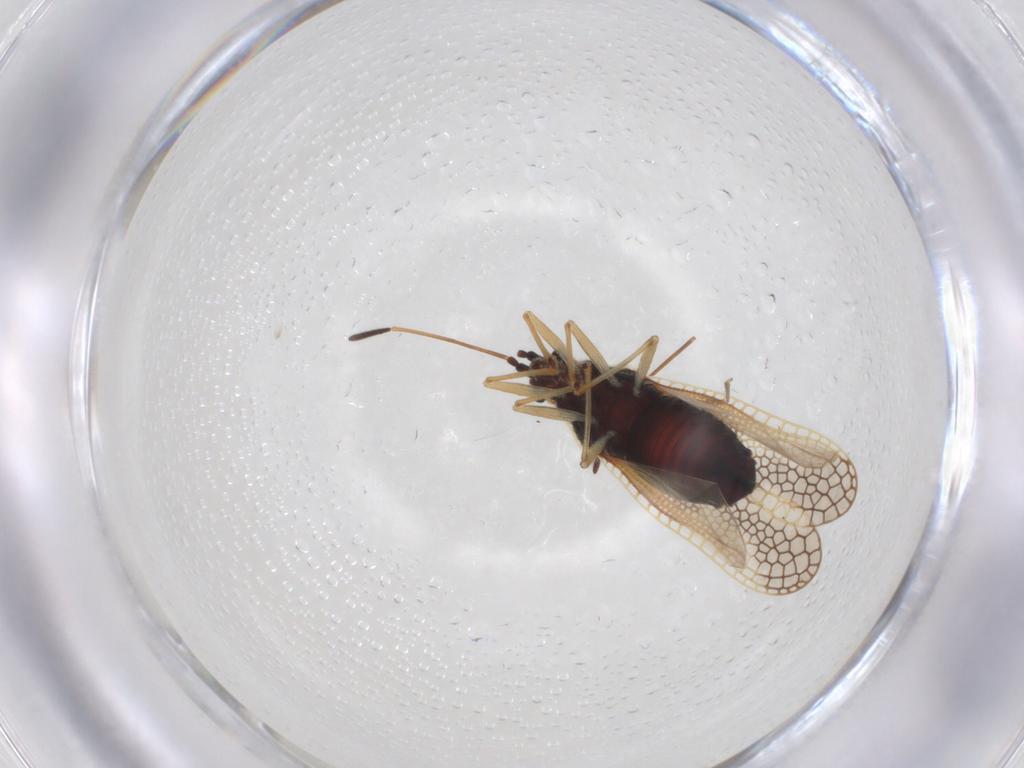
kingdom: Animalia
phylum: Arthropoda
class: Insecta
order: Hemiptera
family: Tingidae
